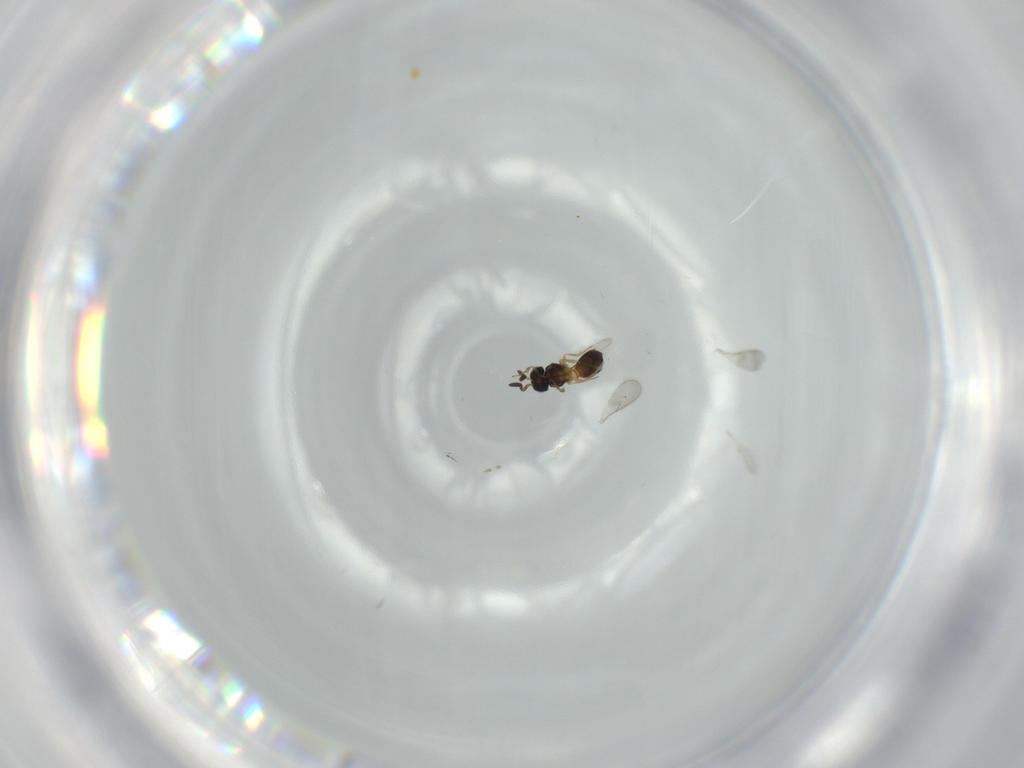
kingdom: Animalia
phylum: Arthropoda
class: Insecta
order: Hymenoptera
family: Scelionidae
